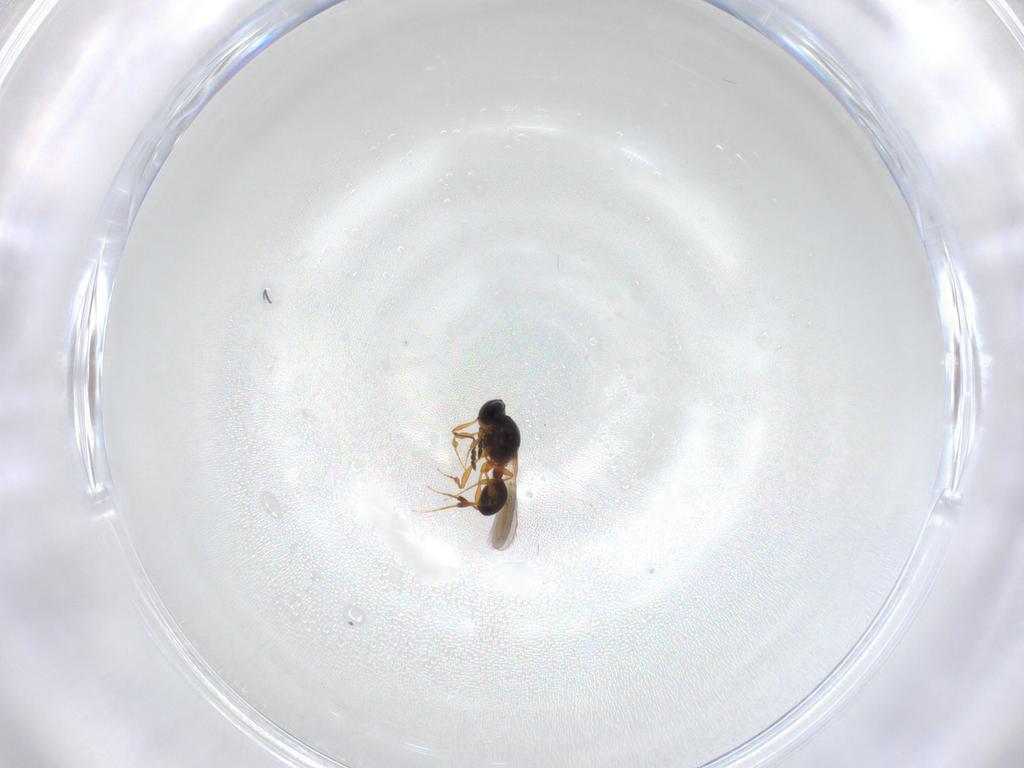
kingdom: Animalia
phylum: Arthropoda
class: Insecta
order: Hymenoptera
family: Platygastridae
